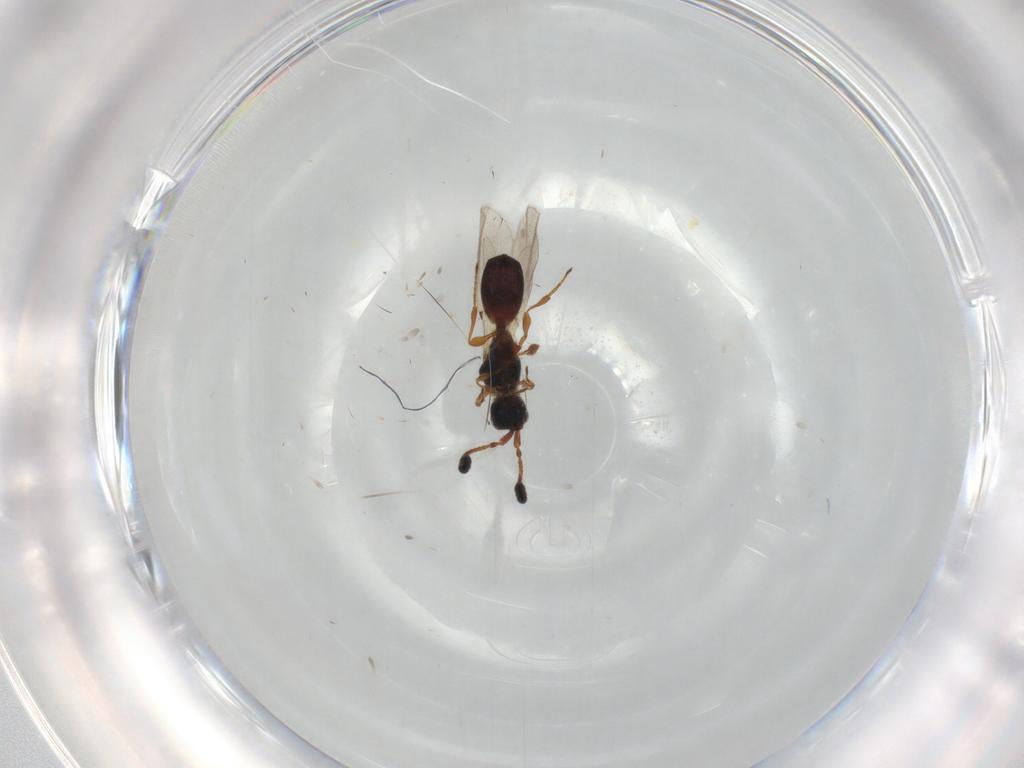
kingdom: Animalia
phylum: Arthropoda
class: Insecta
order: Hymenoptera
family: Diapriidae
